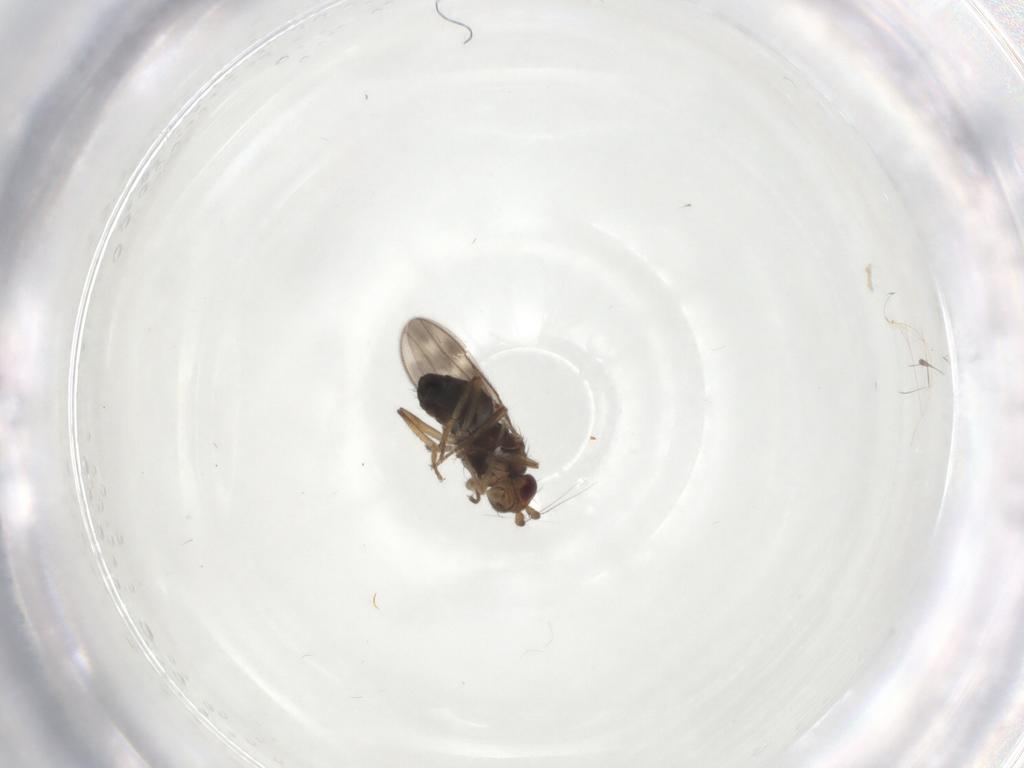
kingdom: Animalia
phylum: Arthropoda
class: Insecta
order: Diptera
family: Sphaeroceridae
